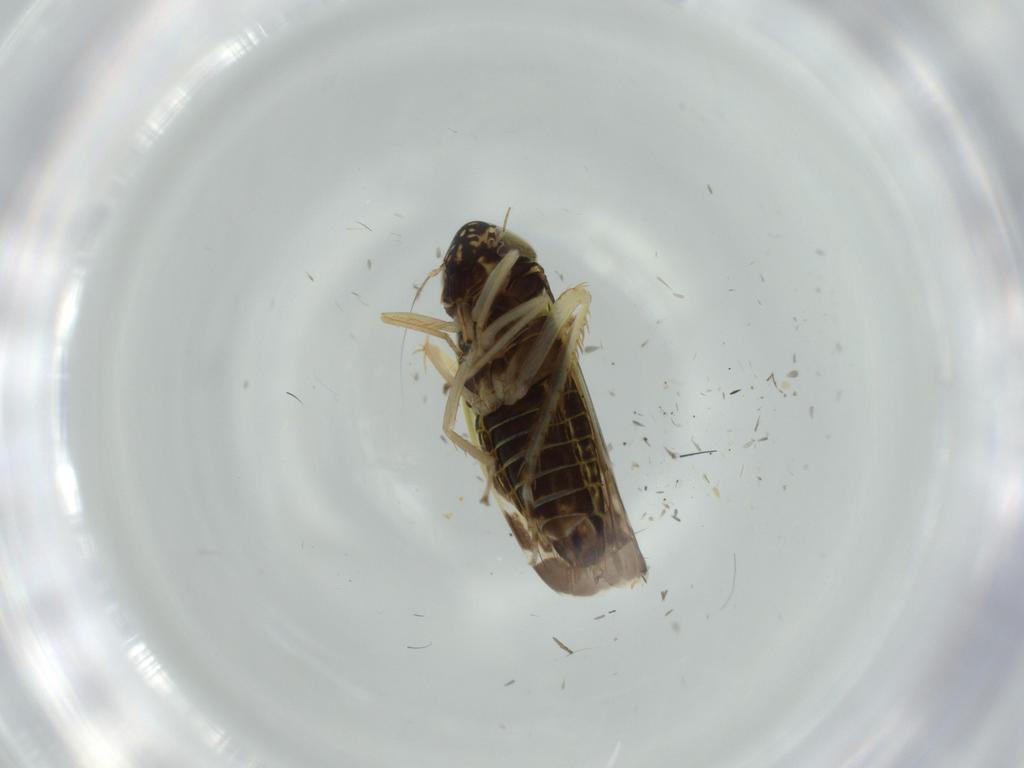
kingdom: Animalia
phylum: Arthropoda
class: Insecta
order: Hemiptera
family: Cicadellidae
